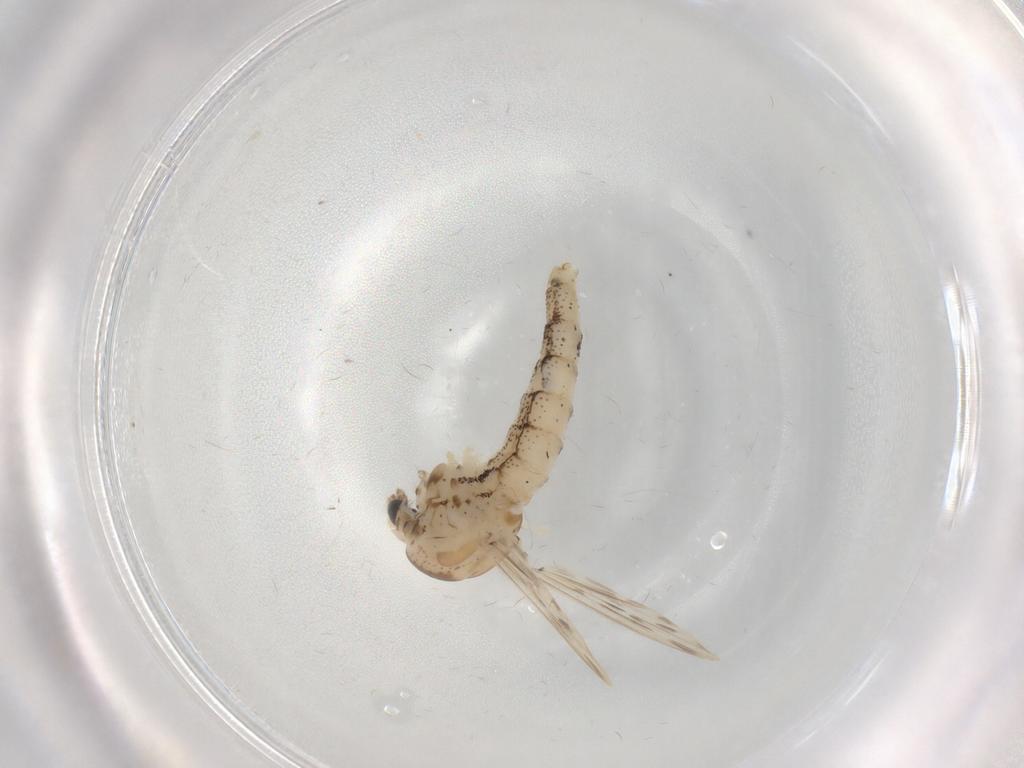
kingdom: Animalia
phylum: Arthropoda
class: Insecta
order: Diptera
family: Chaoboridae
